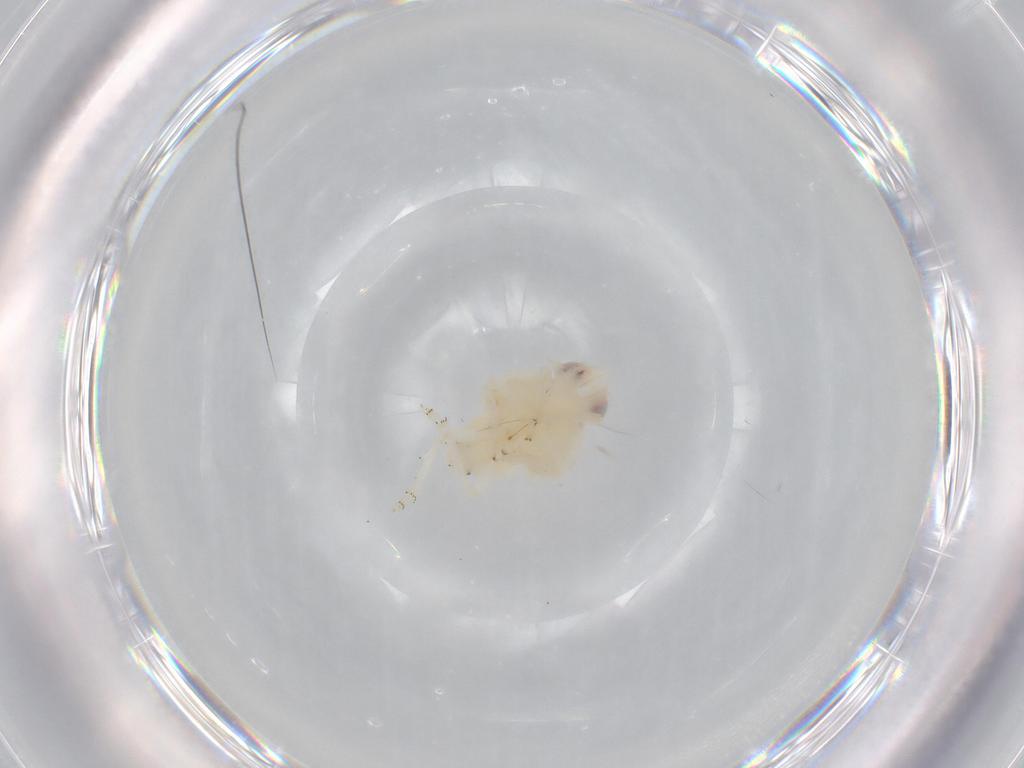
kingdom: Animalia
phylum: Arthropoda
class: Insecta
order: Hemiptera
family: Nogodinidae
